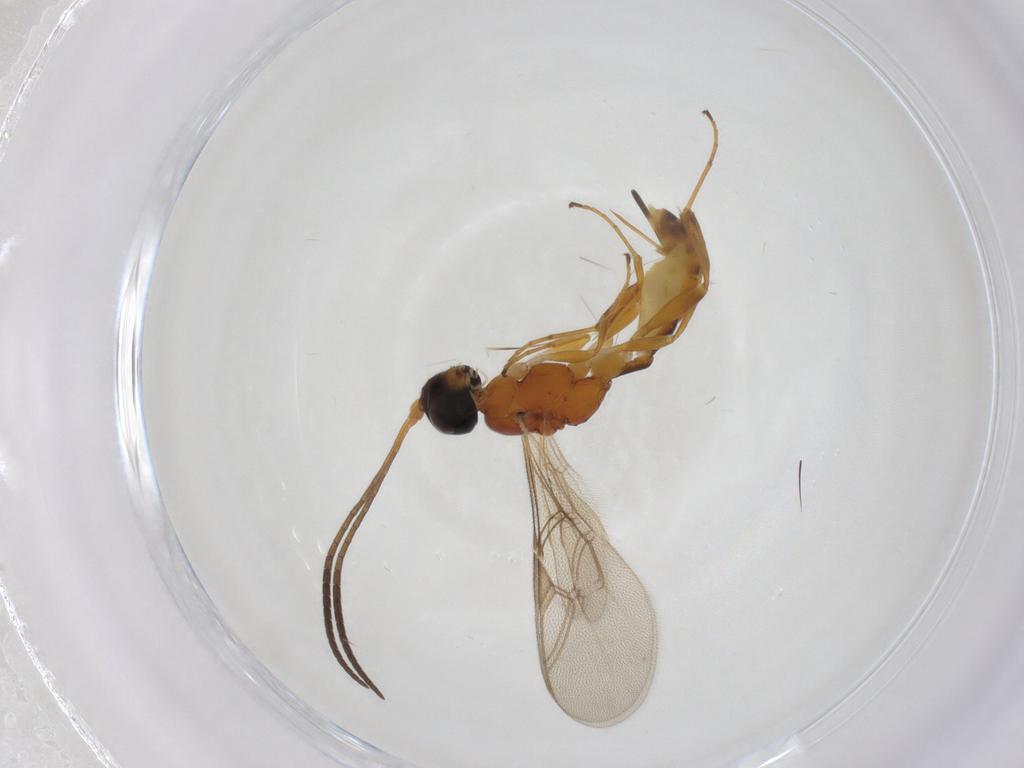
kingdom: Animalia
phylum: Arthropoda
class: Insecta
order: Hymenoptera
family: Ichneumonidae
